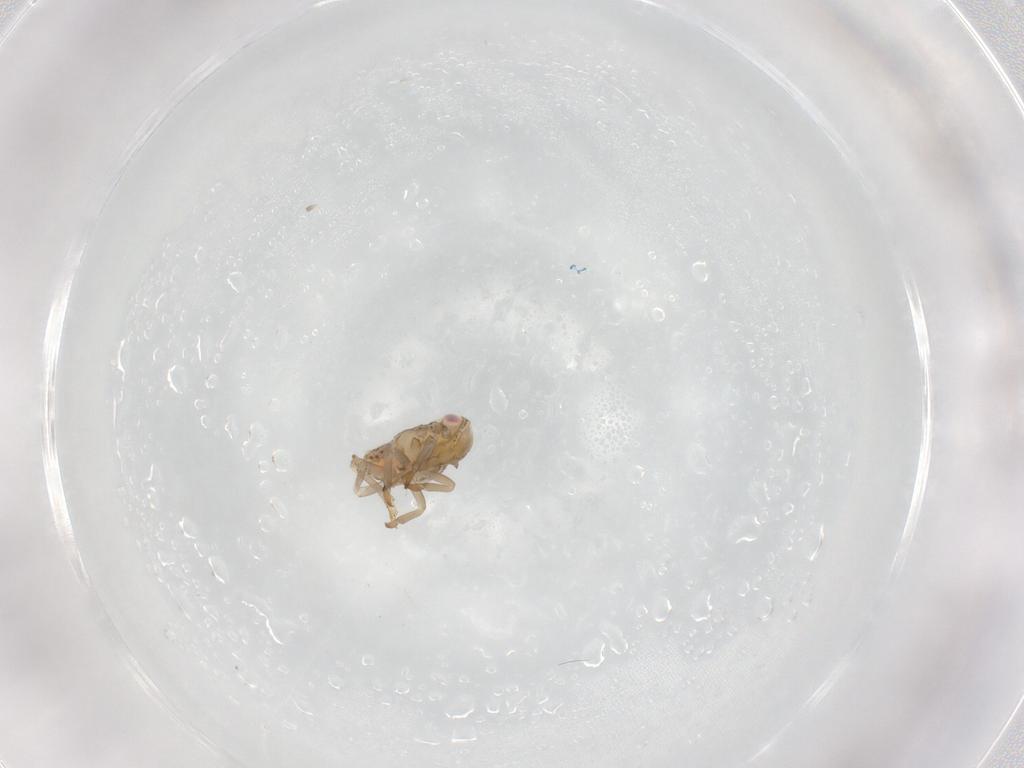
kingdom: Animalia
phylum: Arthropoda
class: Insecta
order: Hemiptera
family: Tropiduchidae
